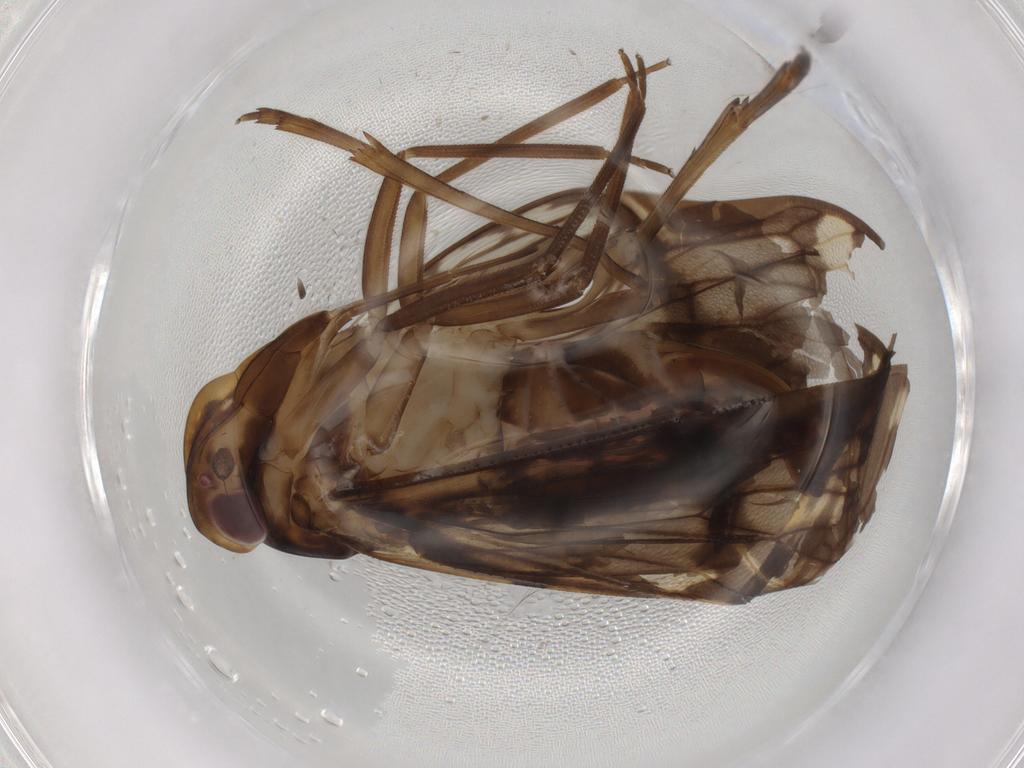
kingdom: Animalia
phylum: Arthropoda
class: Insecta
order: Hemiptera
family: Cixiidae
